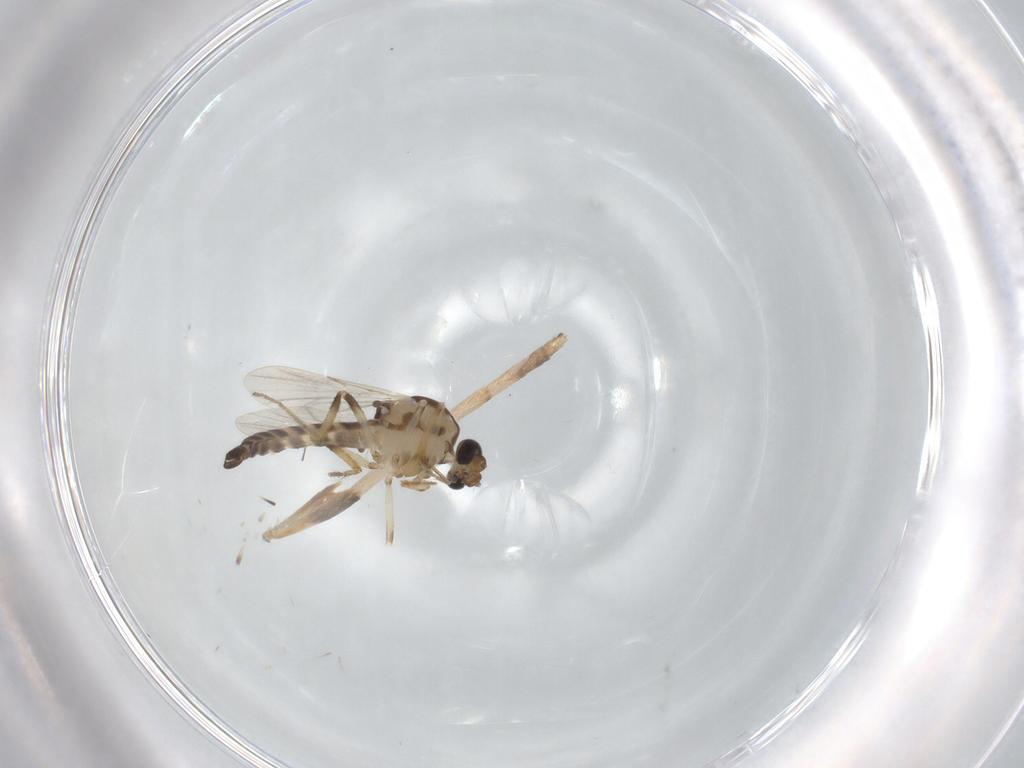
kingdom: Animalia
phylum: Arthropoda
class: Insecta
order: Diptera
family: Ceratopogonidae
